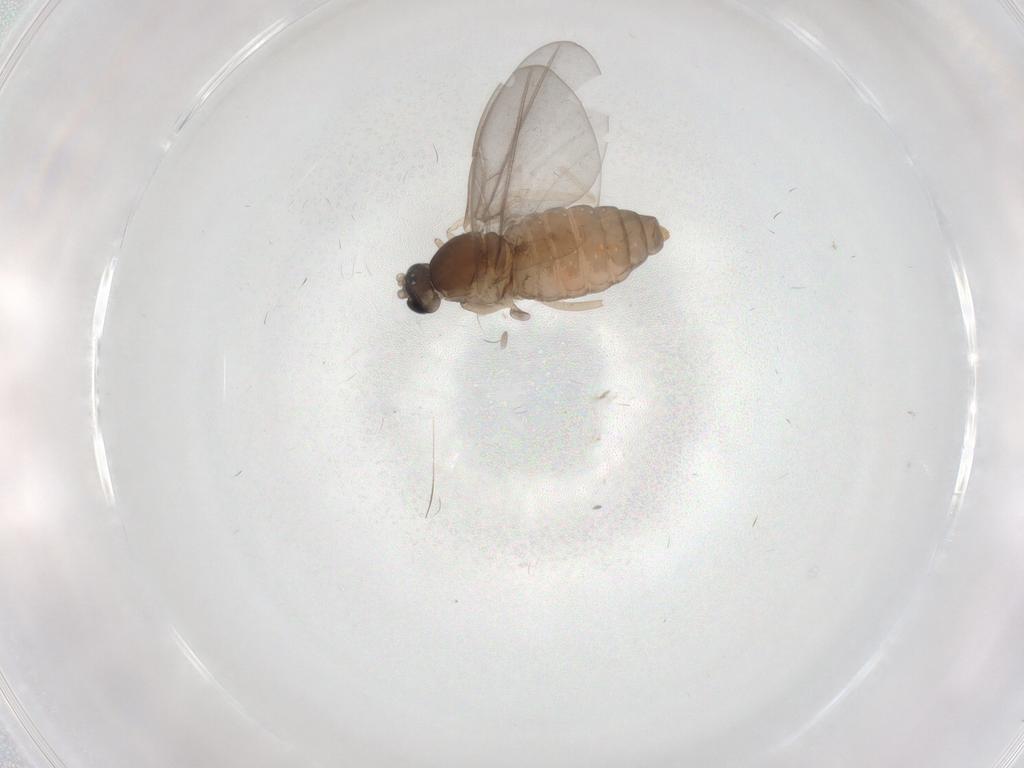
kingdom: Animalia
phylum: Arthropoda
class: Insecta
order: Diptera
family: Cecidomyiidae
